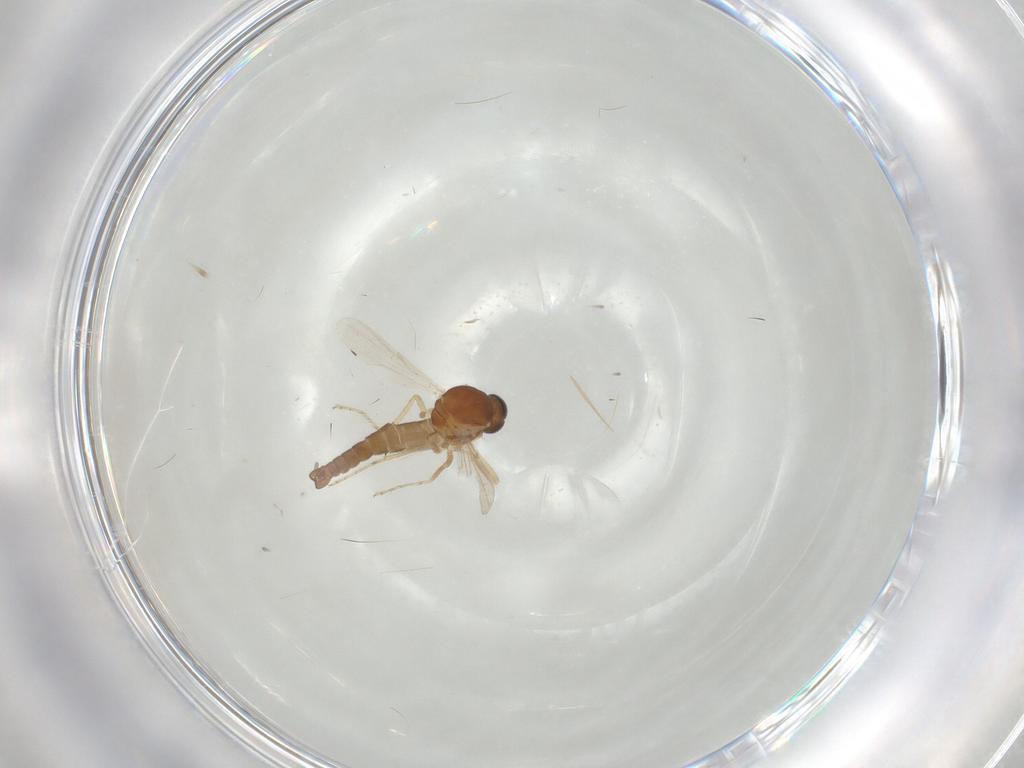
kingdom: Animalia
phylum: Arthropoda
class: Insecta
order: Diptera
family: Ceratopogonidae
